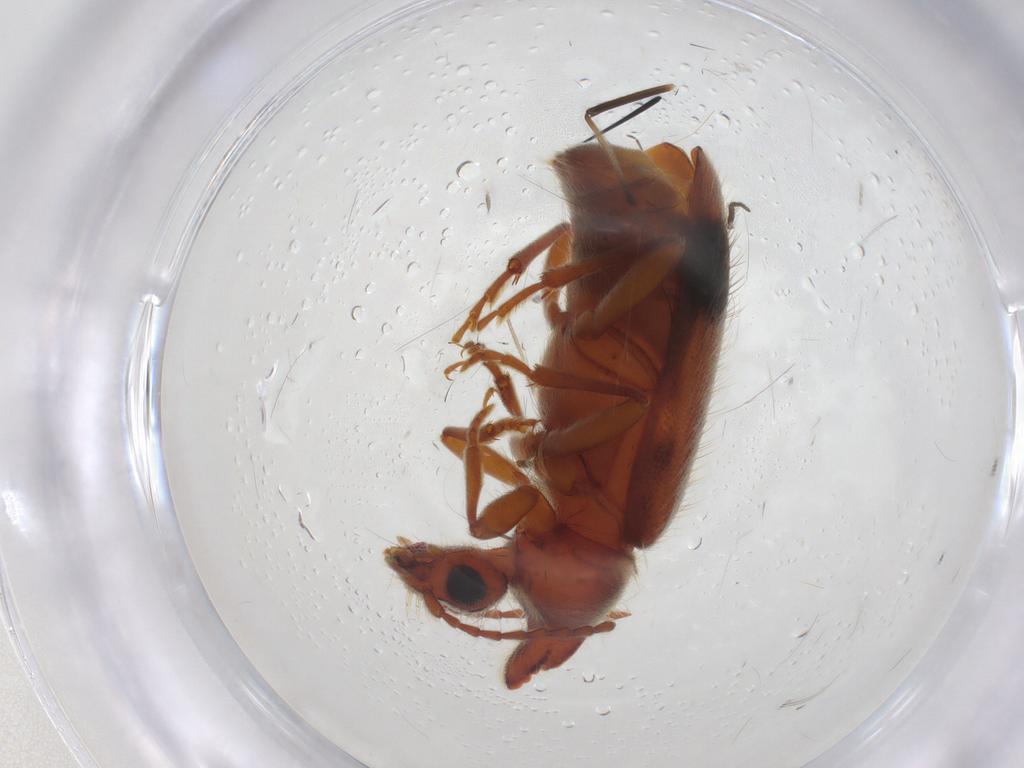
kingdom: Animalia
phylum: Arthropoda
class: Insecta
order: Coleoptera
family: Anthicidae
